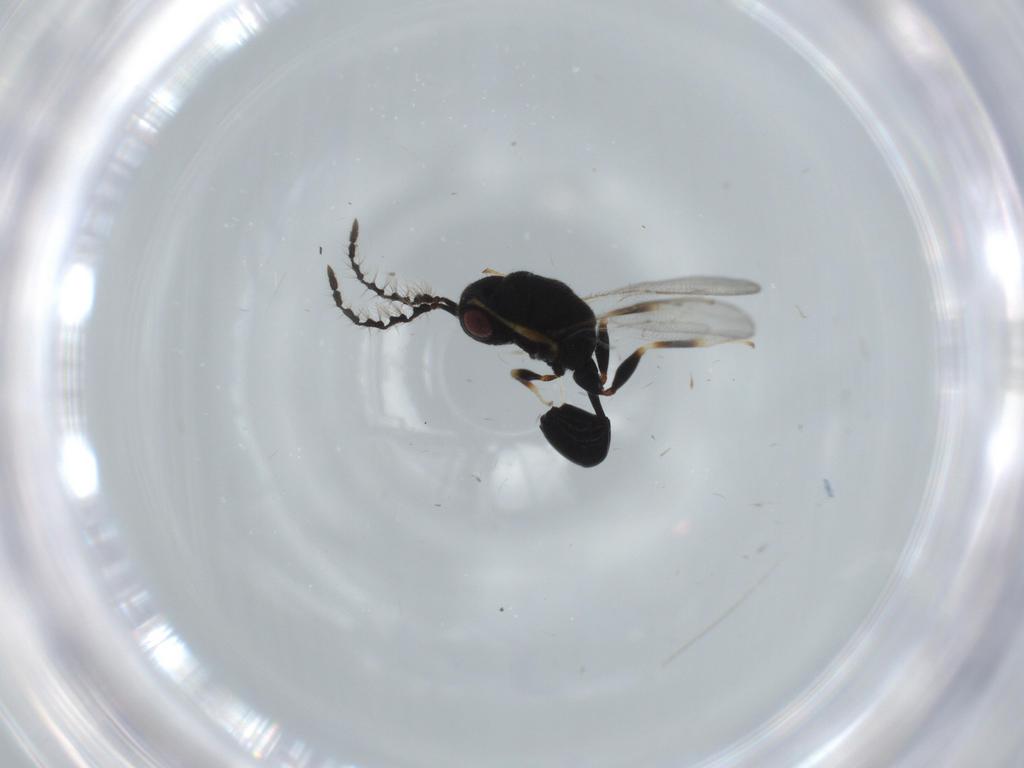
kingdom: Animalia
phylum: Arthropoda
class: Insecta
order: Hymenoptera
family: Eurytomidae
